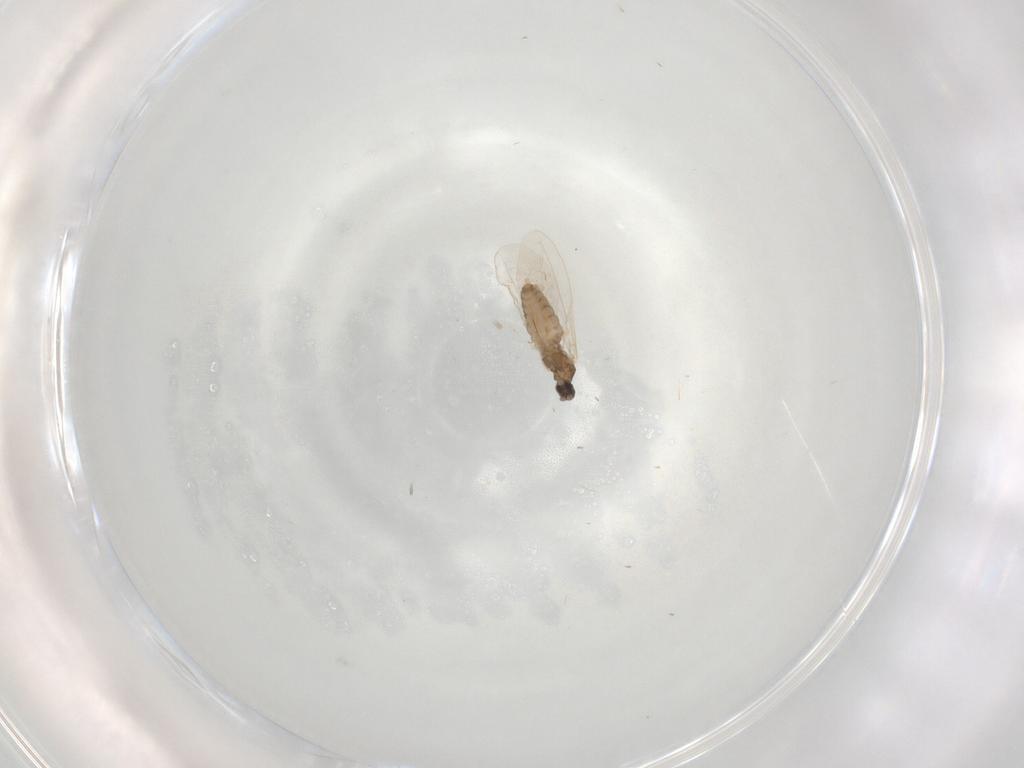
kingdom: Animalia
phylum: Arthropoda
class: Insecta
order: Diptera
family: Cecidomyiidae
